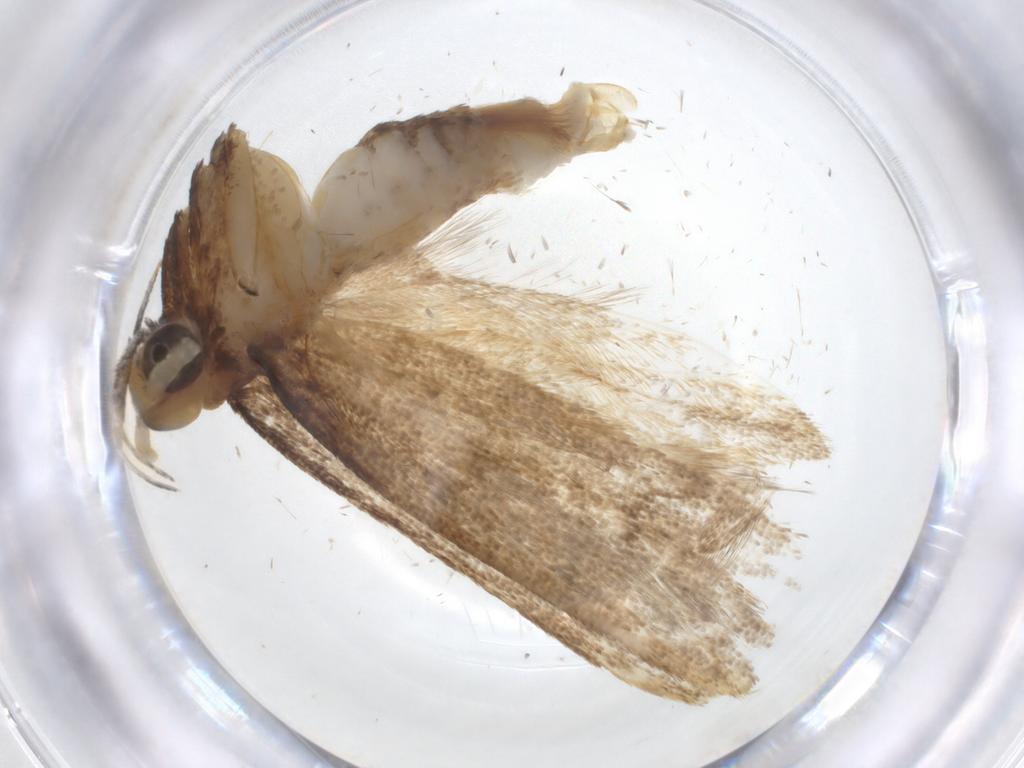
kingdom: Animalia
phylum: Arthropoda
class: Insecta
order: Lepidoptera
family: Lecithoceridae
